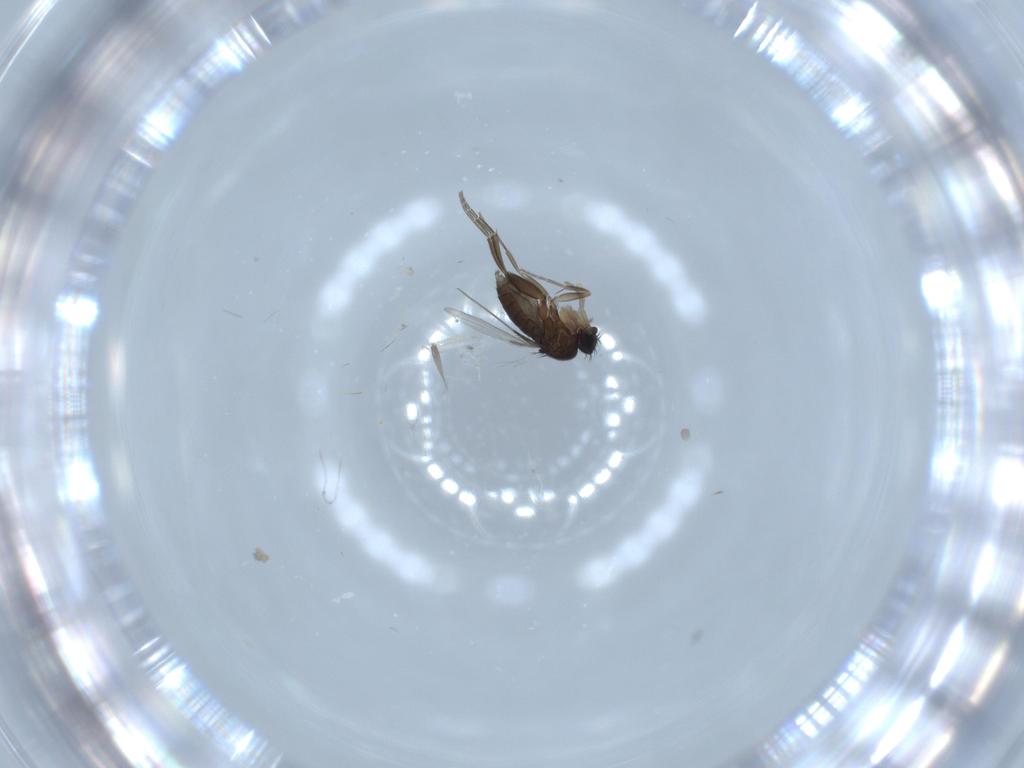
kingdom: Animalia
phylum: Arthropoda
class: Insecta
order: Diptera
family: Phoridae
